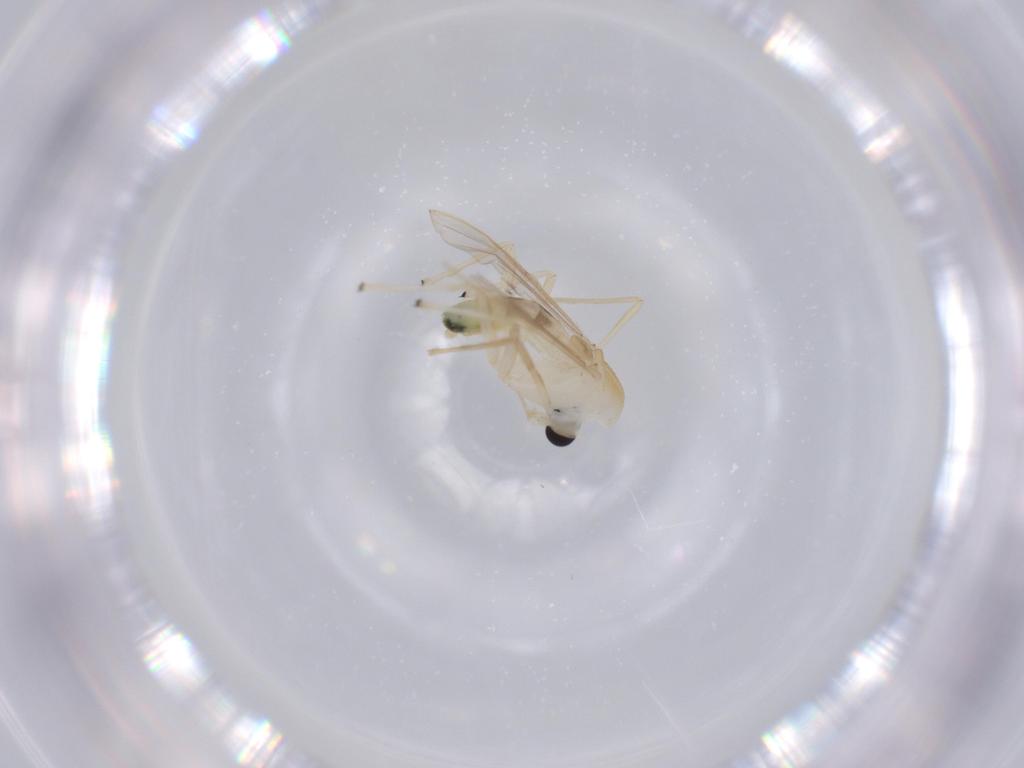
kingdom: Animalia
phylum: Arthropoda
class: Insecta
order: Diptera
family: Chironomidae
